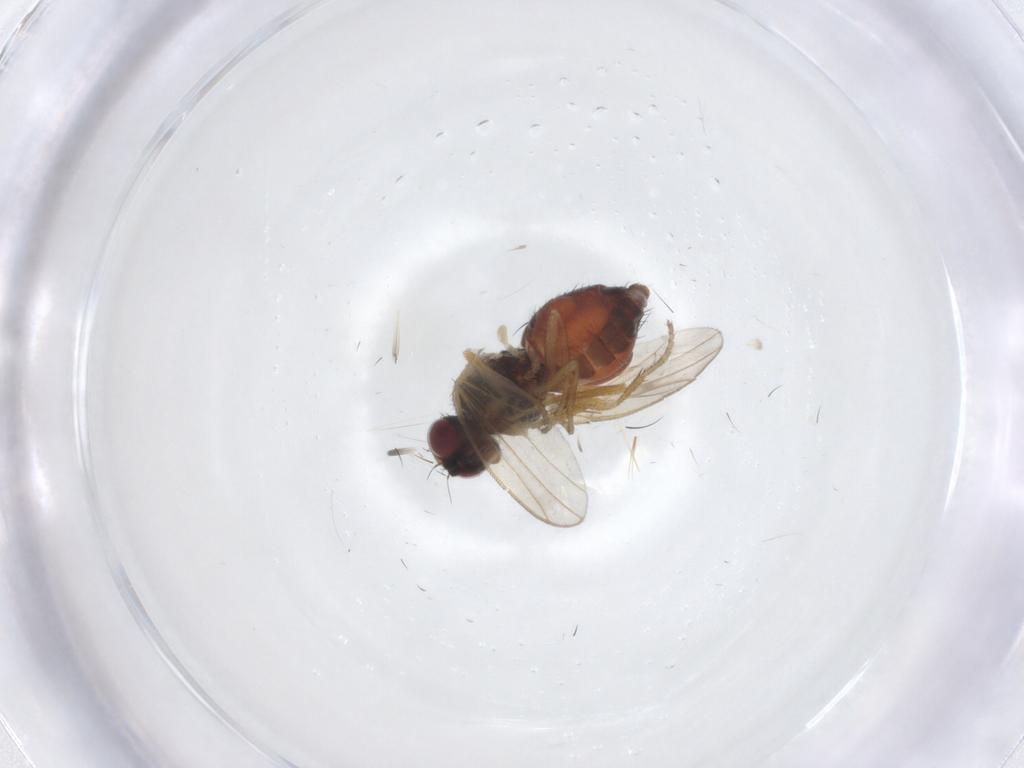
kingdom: Animalia
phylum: Arthropoda
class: Insecta
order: Diptera
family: Heleomyzidae
